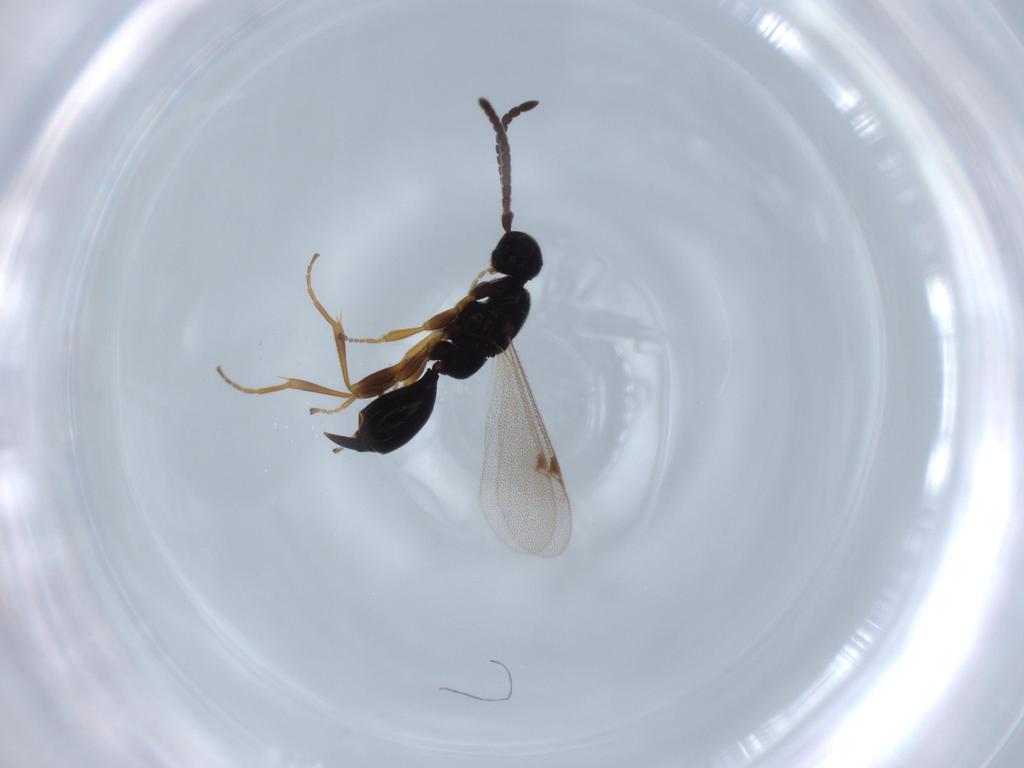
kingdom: Animalia
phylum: Arthropoda
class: Insecta
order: Hymenoptera
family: Proctotrupidae
